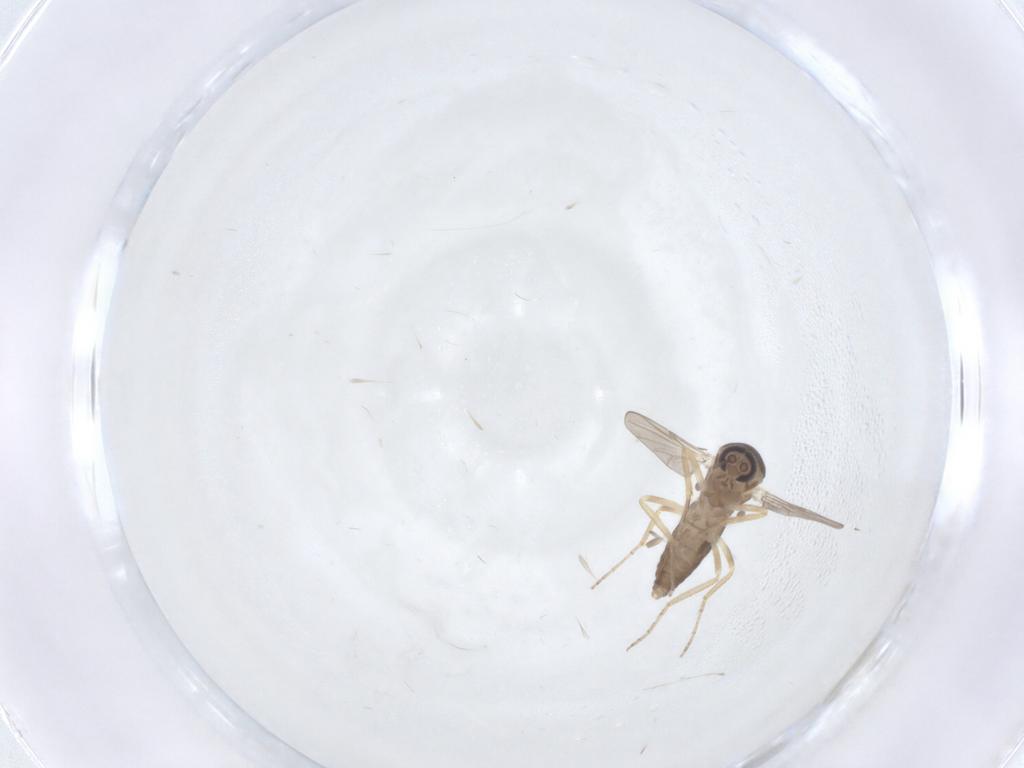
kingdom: Animalia
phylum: Arthropoda
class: Insecta
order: Diptera
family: Ceratopogonidae
